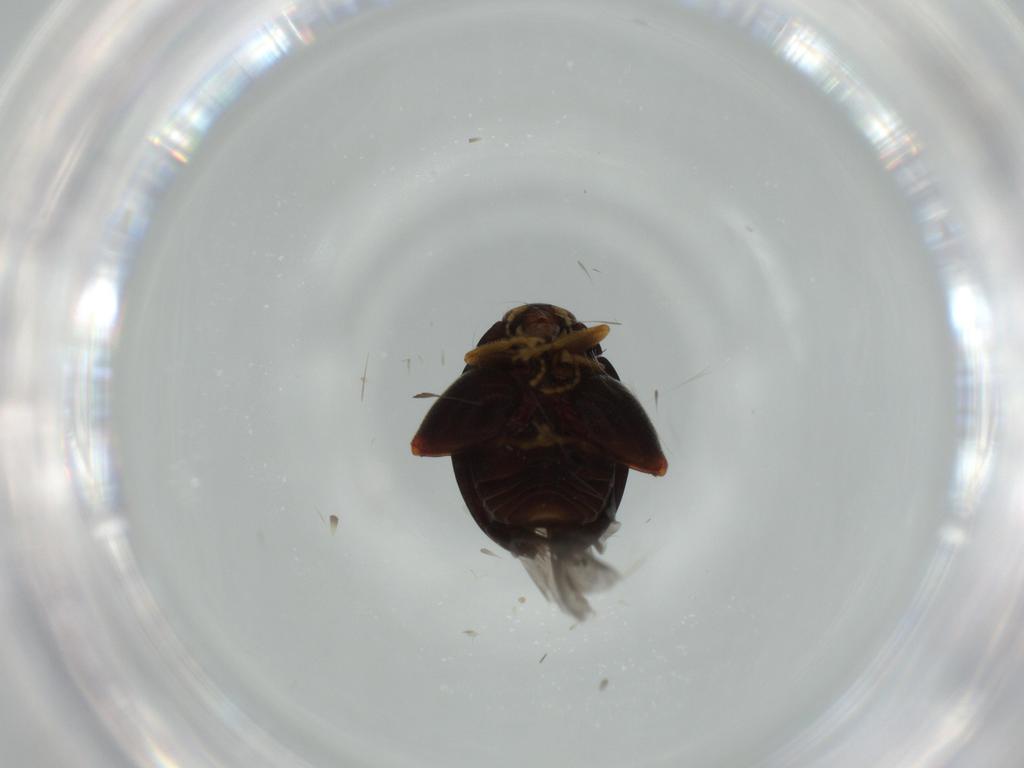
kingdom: Animalia
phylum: Arthropoda
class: Insecta
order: Coleoptera
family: Chrysomelidae
